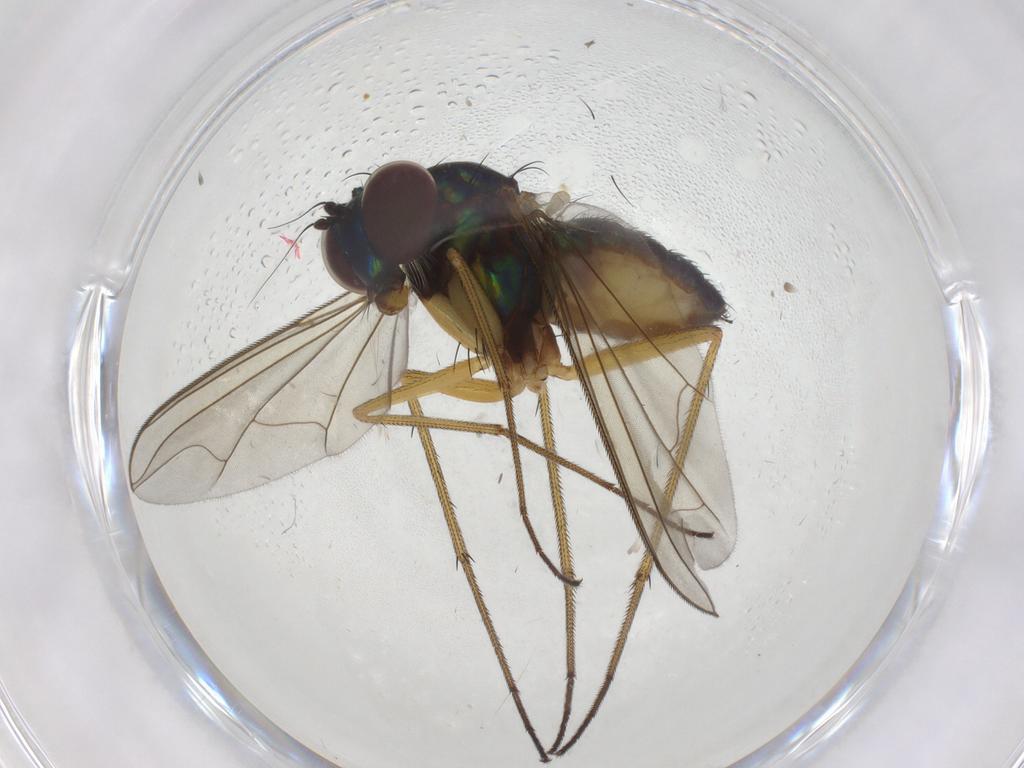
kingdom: Animalia
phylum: Arthropoda
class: Insecta
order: Diptera
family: Dolichopodidae
